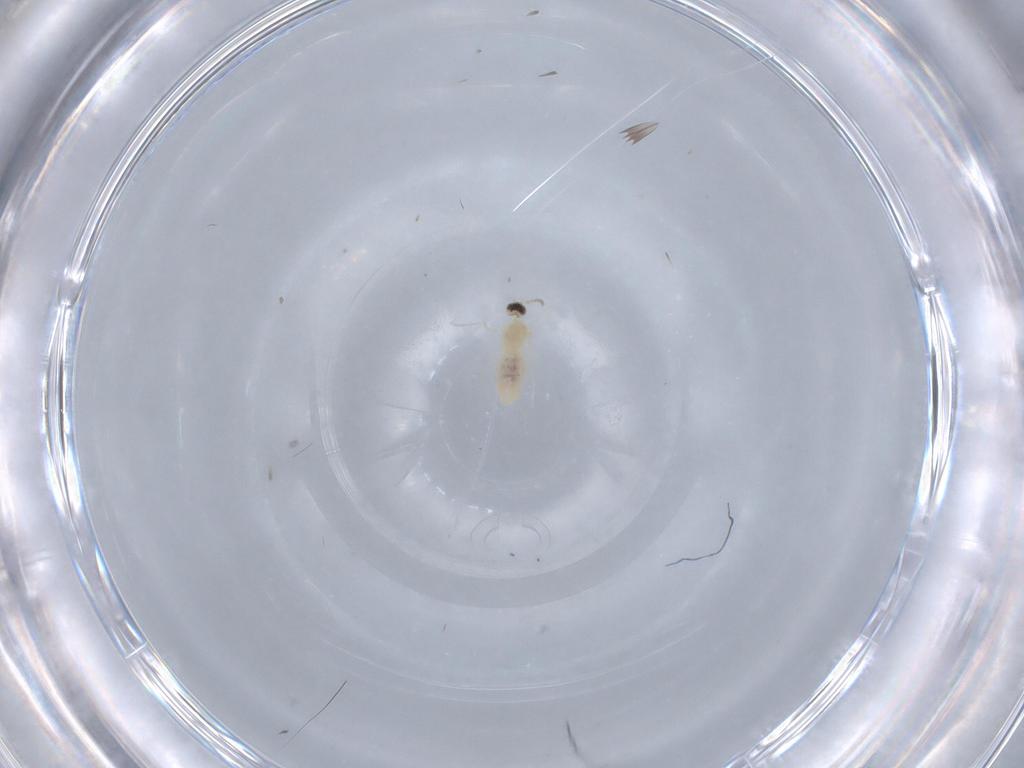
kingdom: Animalia
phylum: Arthropoda
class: Insecta
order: Diptera
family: Cecidomyiidae
